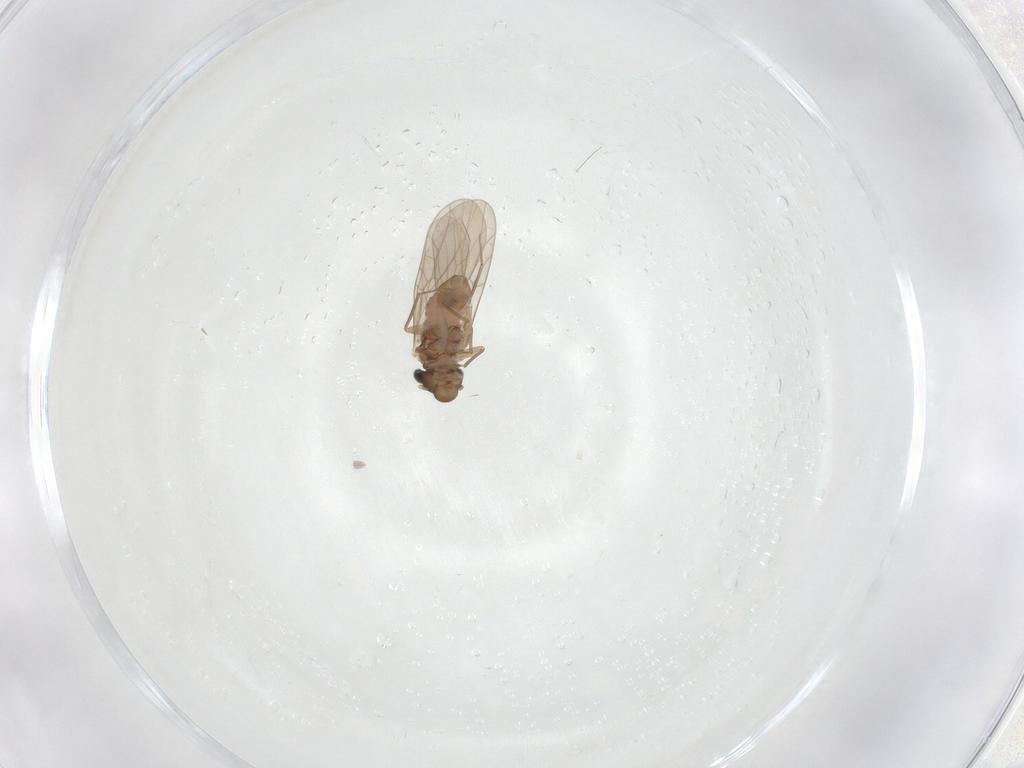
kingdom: Animalia
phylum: Arthropoda
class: Insecta
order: Psocodea
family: Lepidopsocidae
